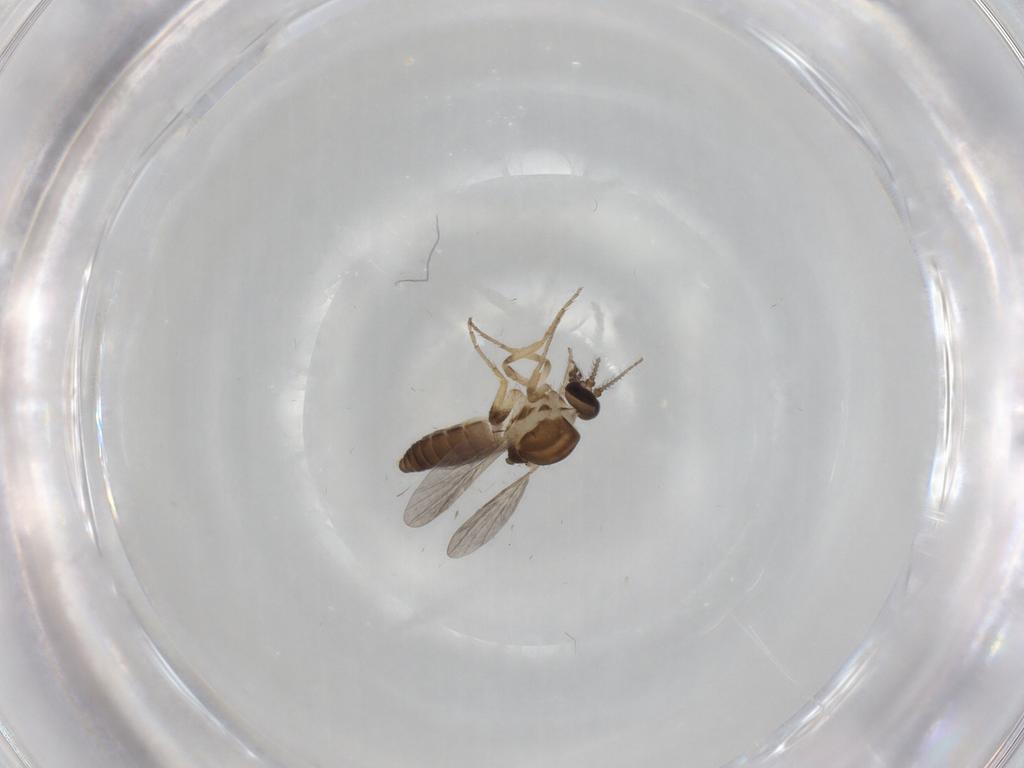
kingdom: Animalia
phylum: Arthropoda
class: Insecta
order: Diptera
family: Ceratopogonidae
